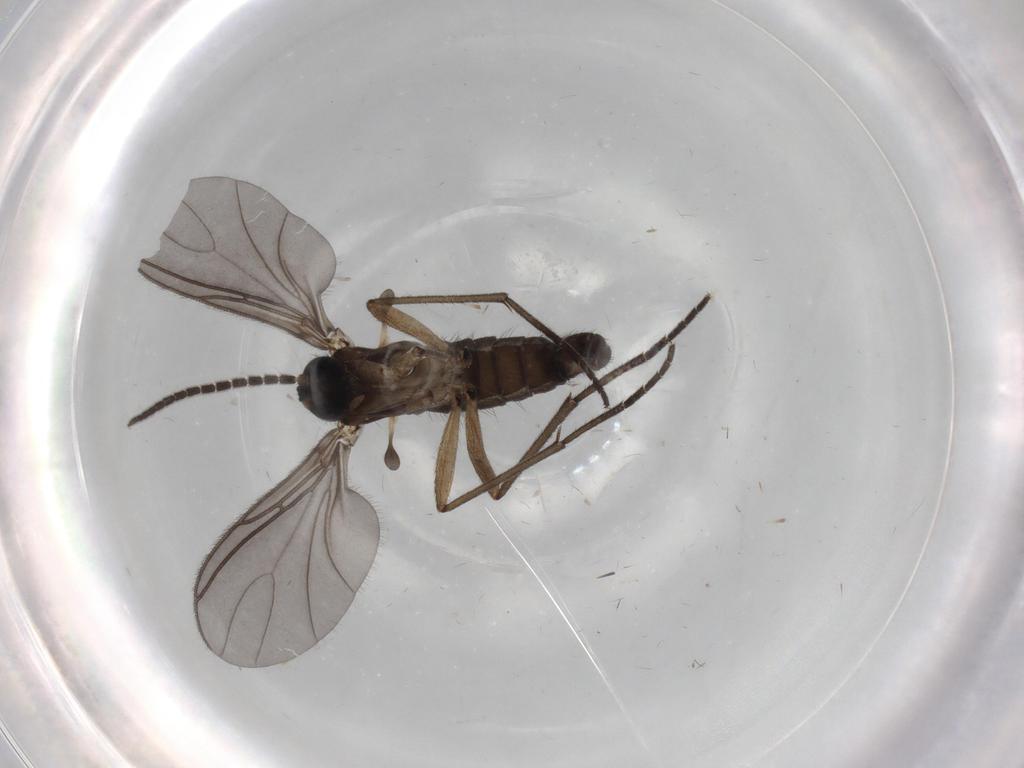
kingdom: Animalia
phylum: Arthropoda
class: Insecta
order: Diptera
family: Sciaridae
